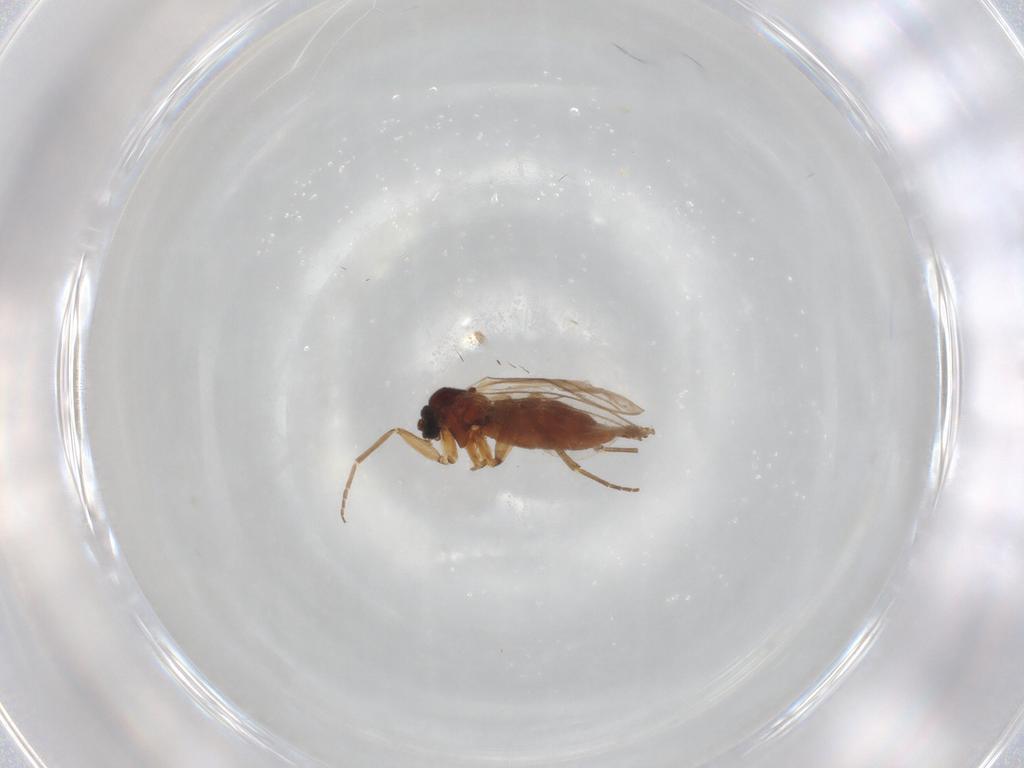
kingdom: Animalia
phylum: Arthropoda
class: Insecta
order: Diptera
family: Sciaridae
